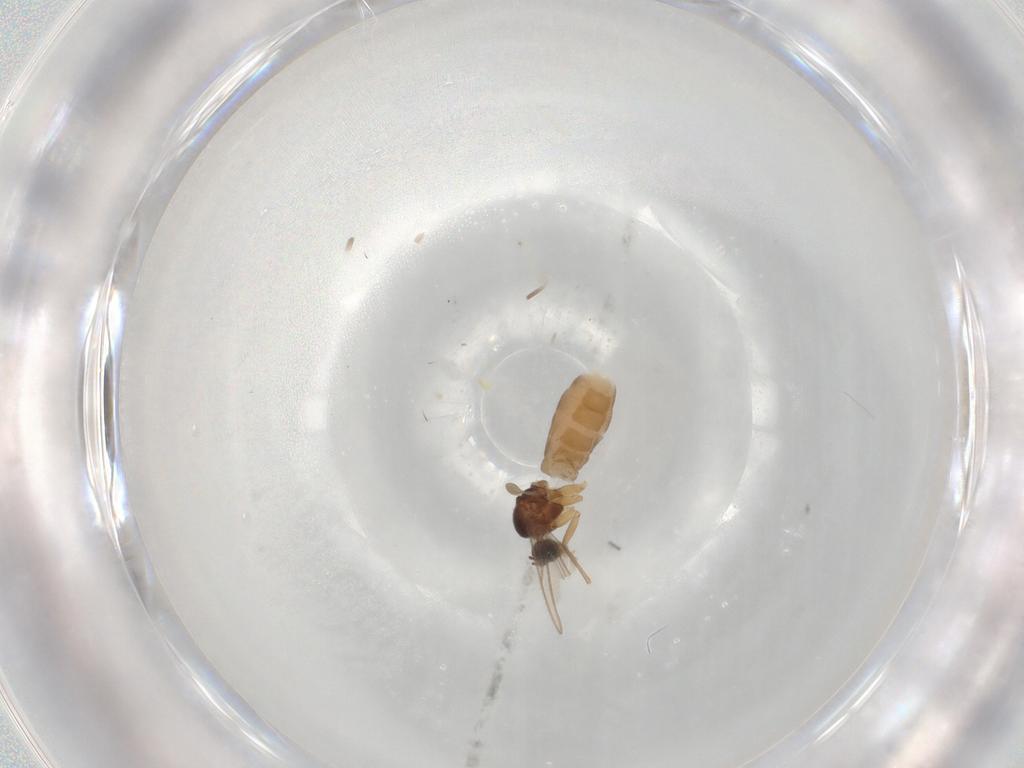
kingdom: Animalia
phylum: Arthropoda
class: Insecta
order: Diptera
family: Sciaridae
